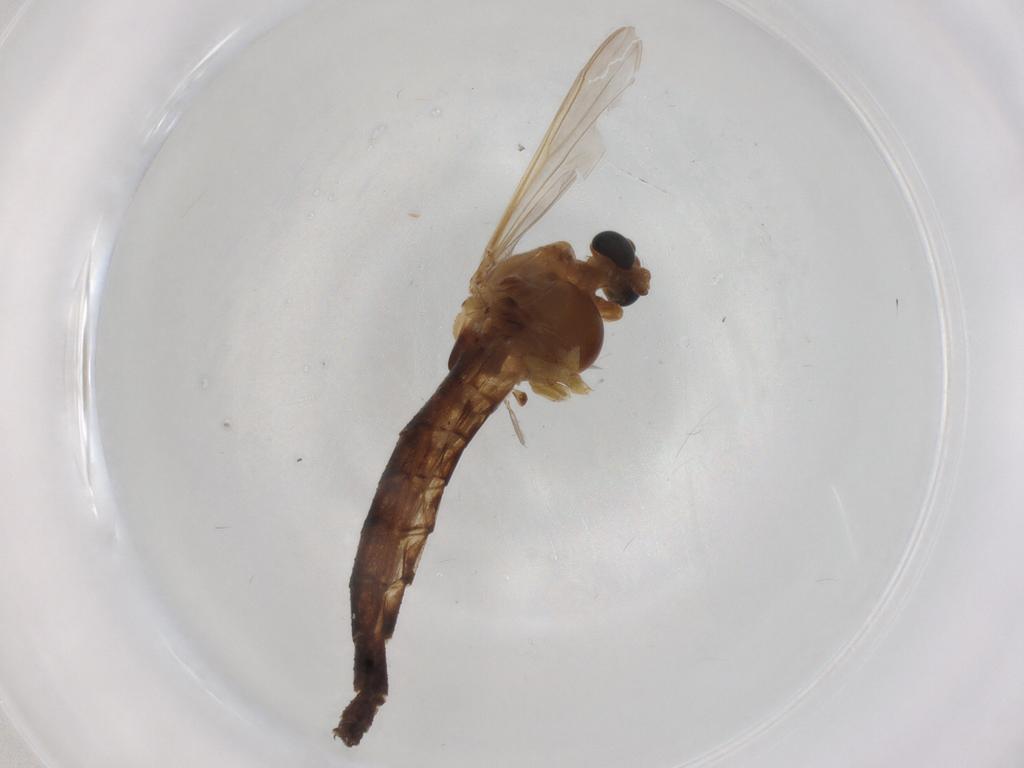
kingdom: Animalia
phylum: Arthropoda
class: Insecta
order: Diptera
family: Chironomidae
